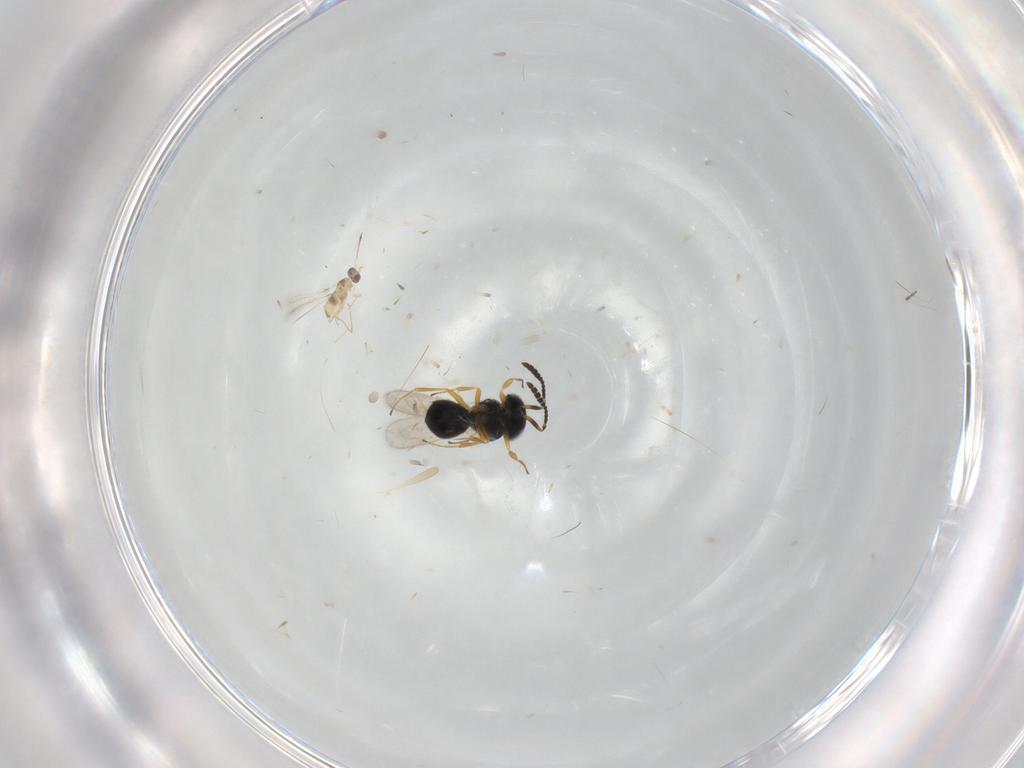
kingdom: Animalia
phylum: Arthropoda
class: Insecta
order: Hymenoptera
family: Scelionidae
